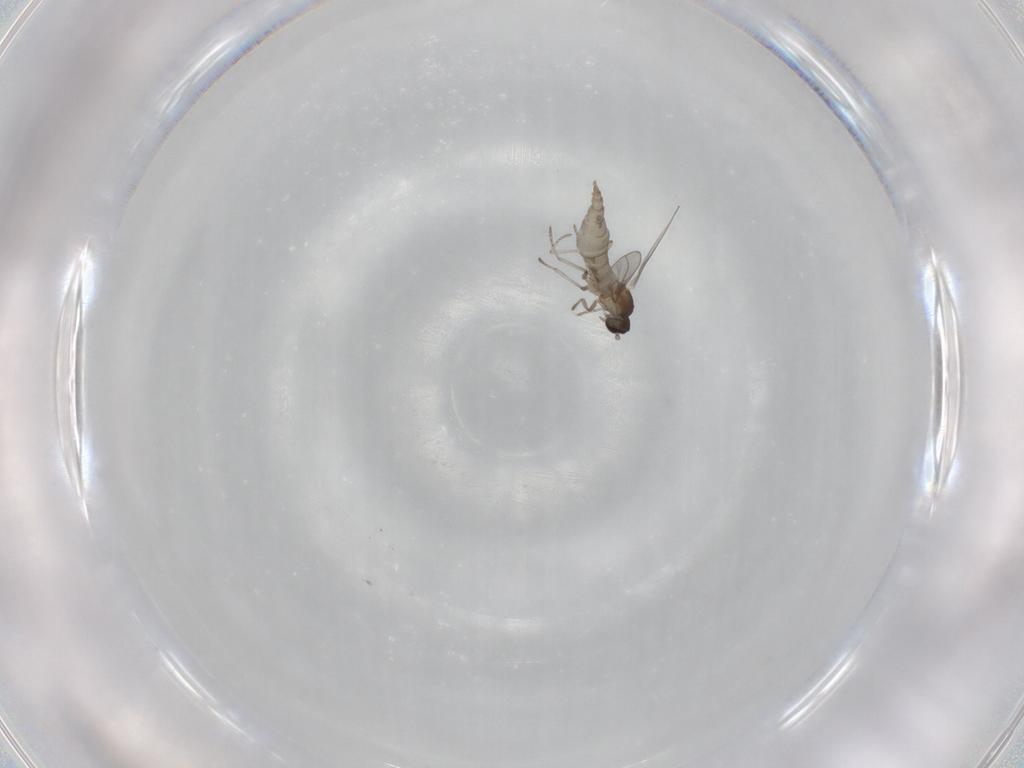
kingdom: Animalia
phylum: Arthropoda
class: Insecta
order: Diptera
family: Cecidomyiidae
